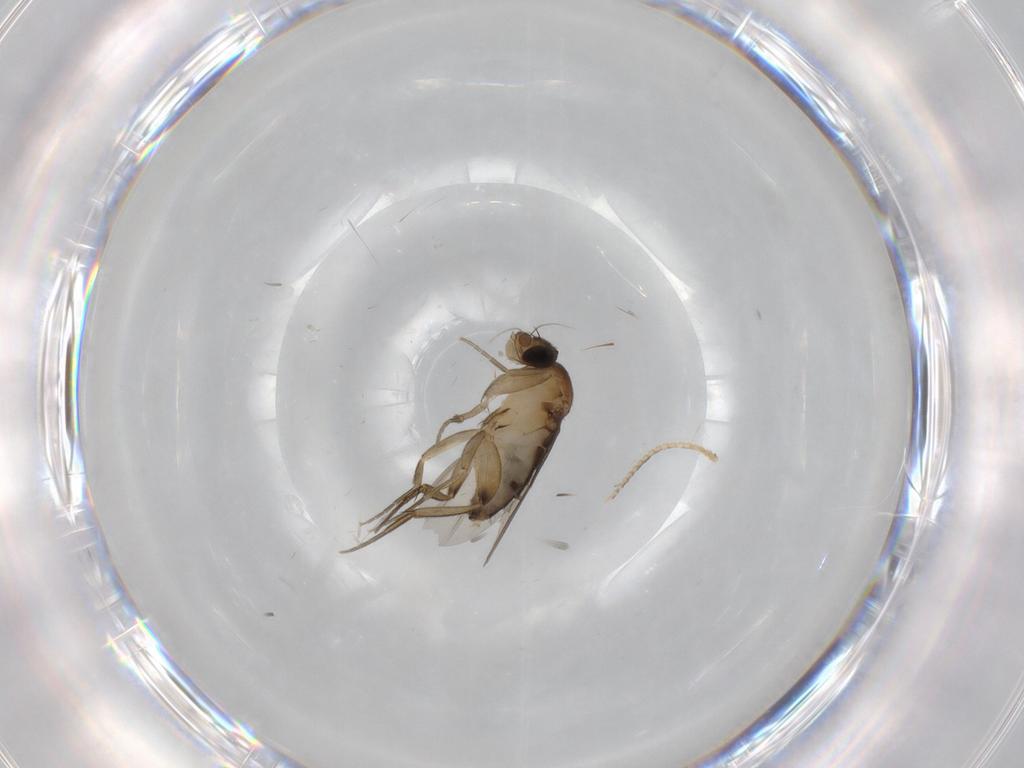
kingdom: Animalia
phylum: Arthropoda
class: Insecta
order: Diptera
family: Phoridae
